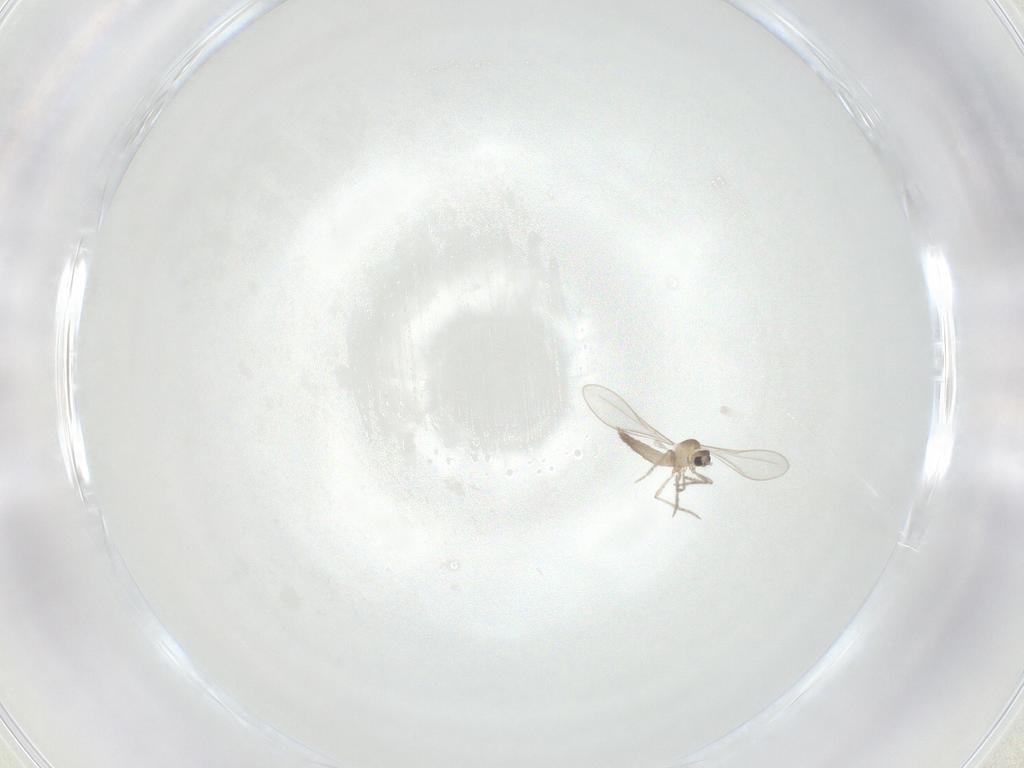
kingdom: Animalia
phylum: Arthropoda
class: Insecta
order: Diptera
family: Cecidomyiidae
